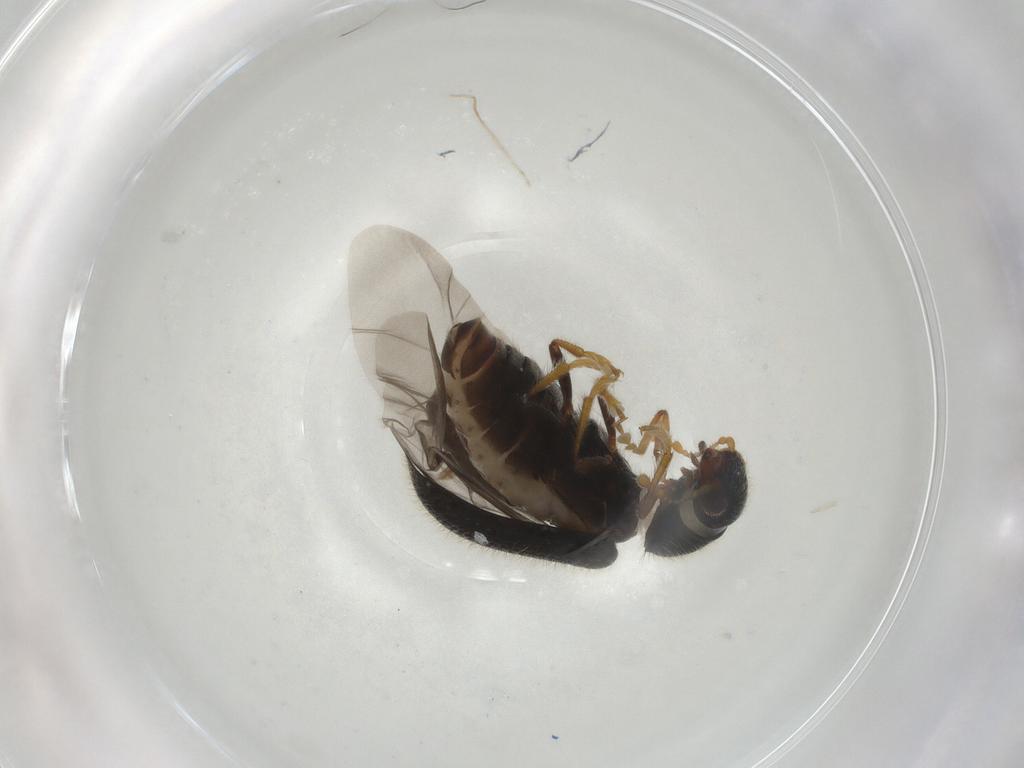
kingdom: Animalia
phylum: Arthropoda
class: Insecta
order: Coleoptera
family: Cleridae
